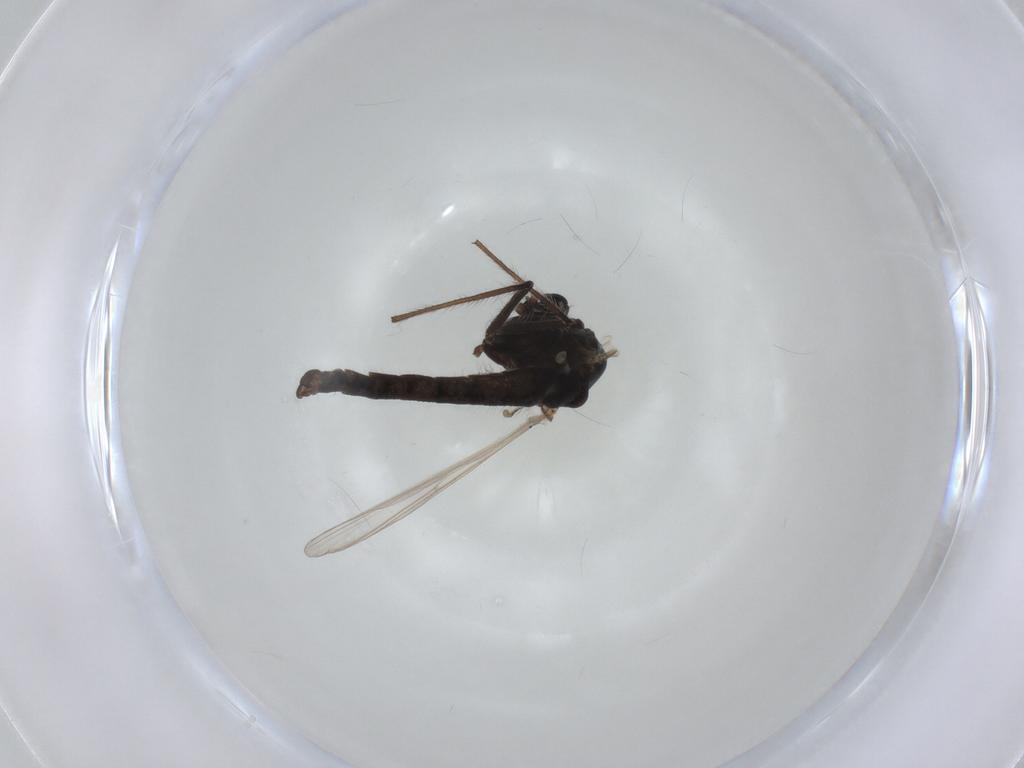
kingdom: Animalia
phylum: Arthropoda
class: Insecta
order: Diptera
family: Chironomidae
